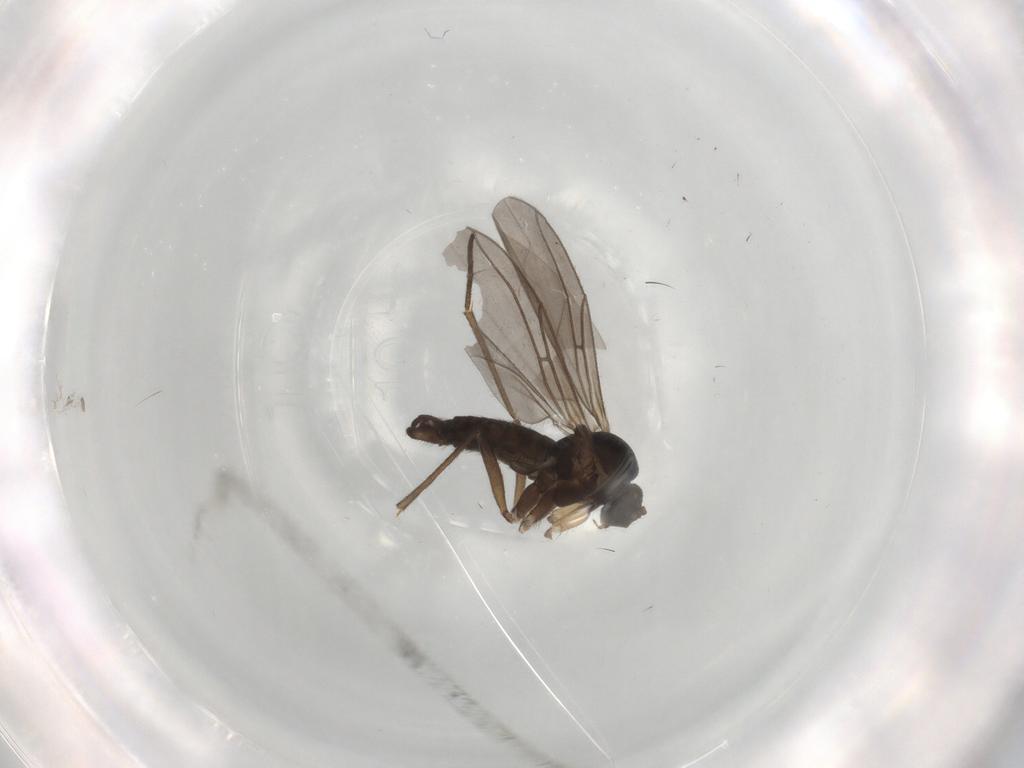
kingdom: Animalia
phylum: Arthropoda
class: Insecta
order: Diptera
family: Sciaridae
